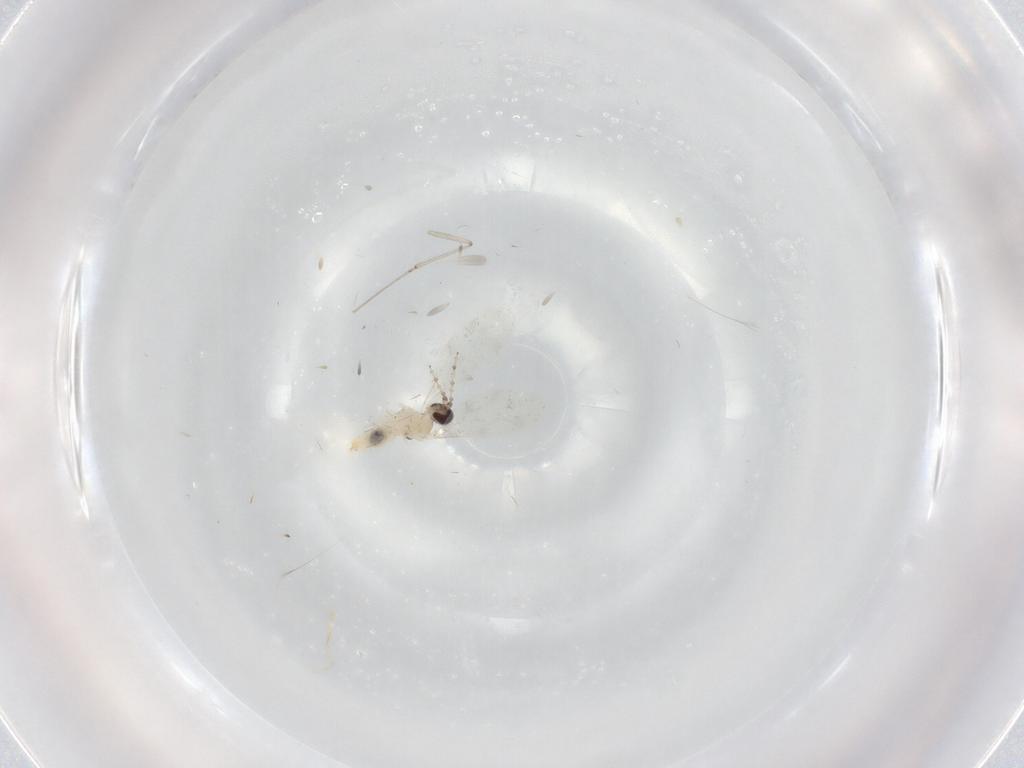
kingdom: Animalia
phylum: Arthropoda
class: Insecta
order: Diptera
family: Cecidomyiidae
